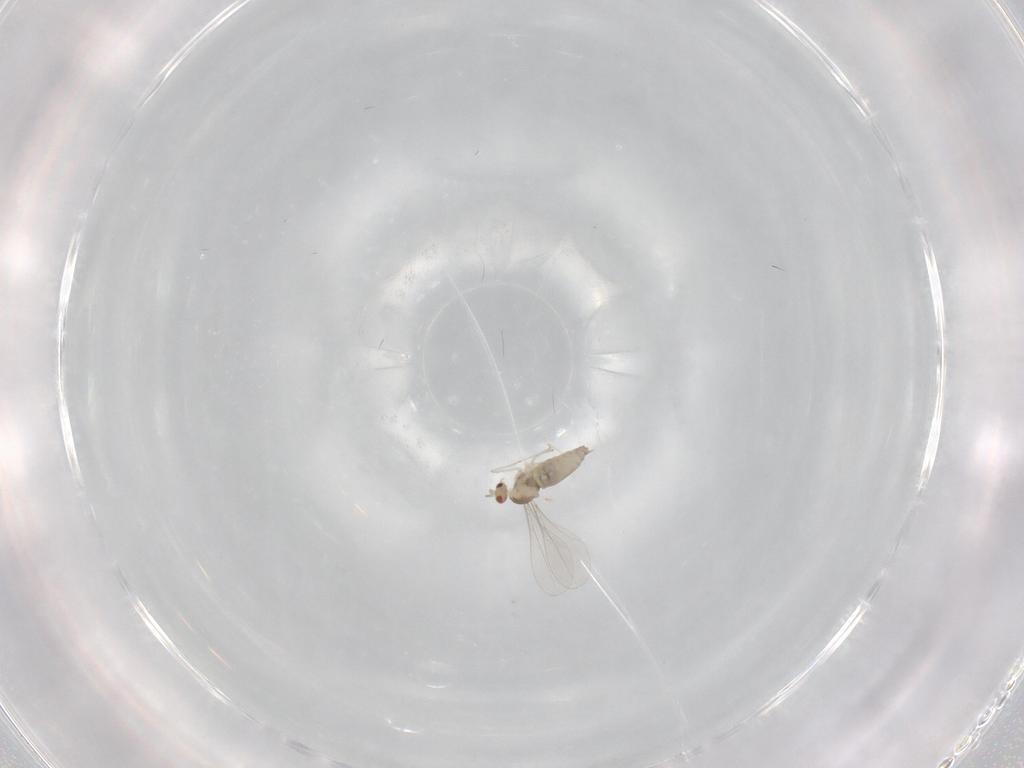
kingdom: Animalia
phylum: Arthropoda
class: Insecta
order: Diptera
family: Cecidomyiidae
